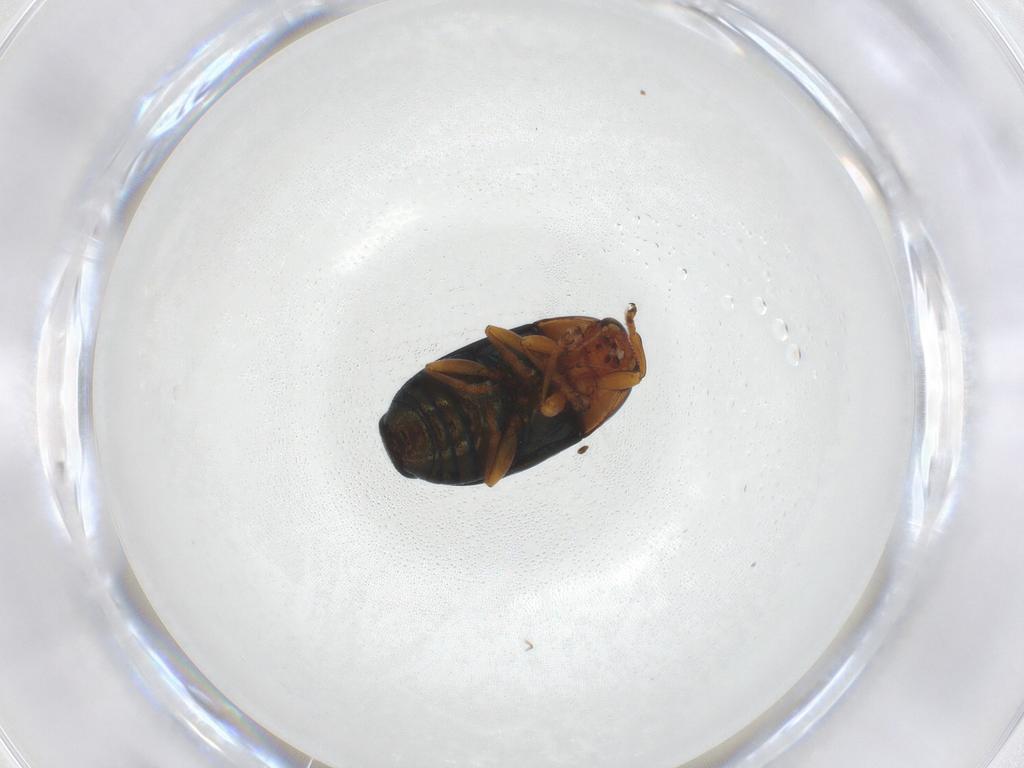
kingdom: Animalia
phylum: Arthropoda
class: Insecta
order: Coleoptera
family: Chrysomelidae
